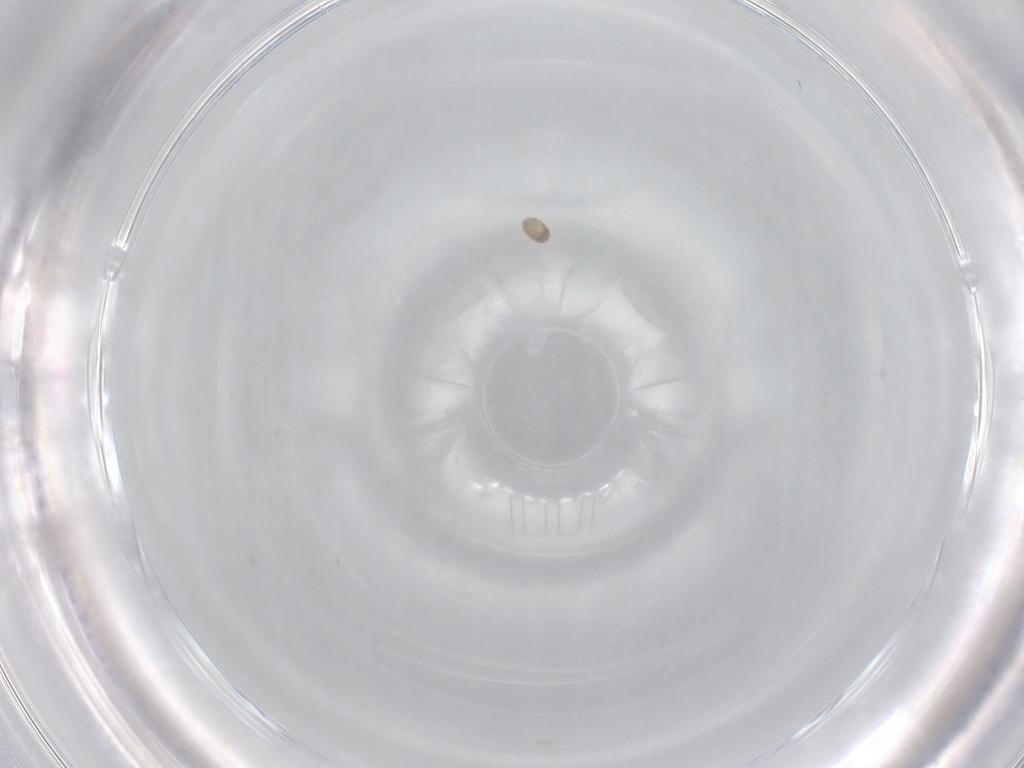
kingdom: Animalia
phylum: Arthropoda
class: Arachnida
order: Trombidiformes
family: Anystidae
